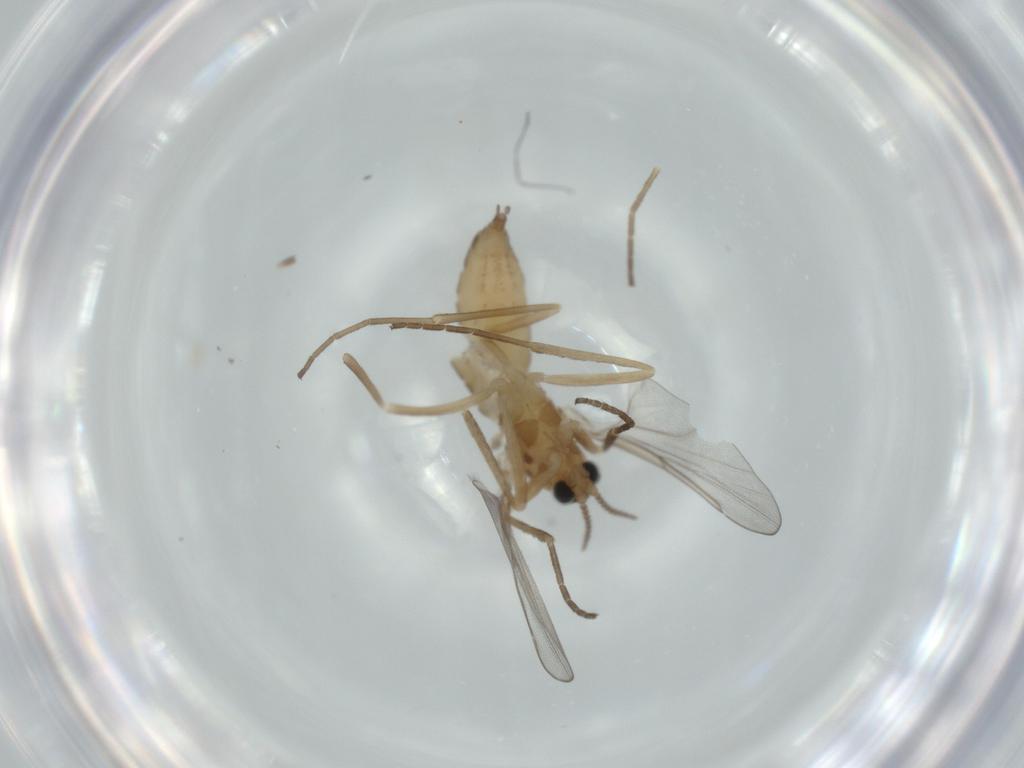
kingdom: Animalia
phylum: Arthropoda
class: Insecta
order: Diptera
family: Cecidomyiidae
